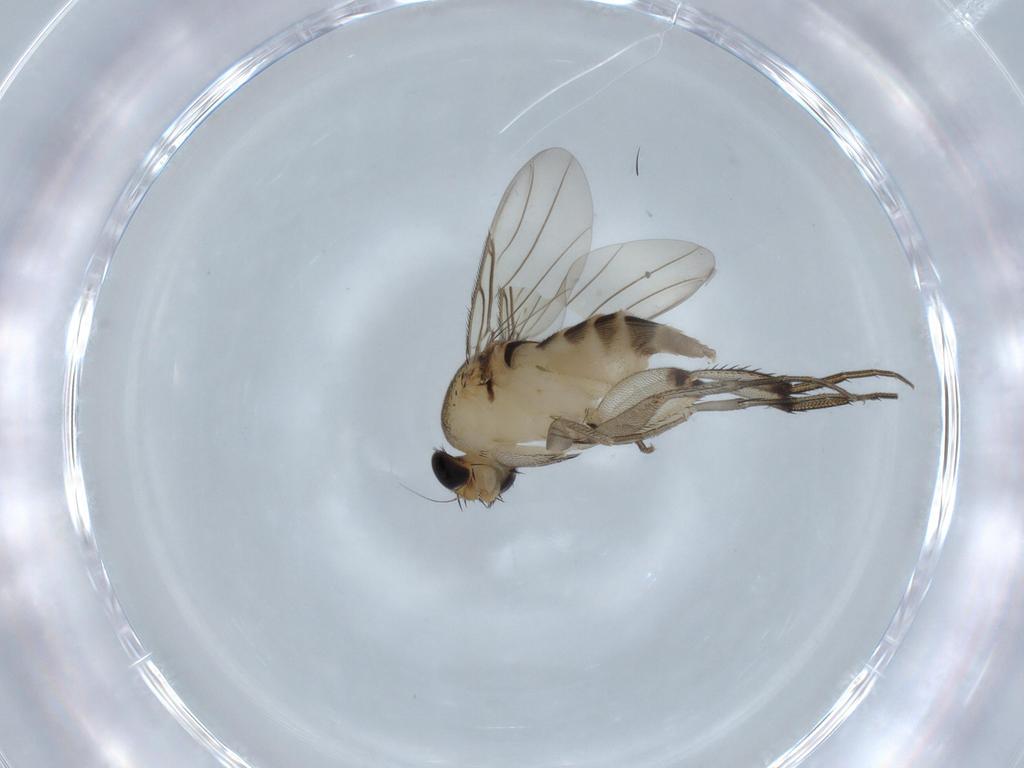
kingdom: Animalia
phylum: Arthropoda
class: Insecta
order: Diptera
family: Phoridae
